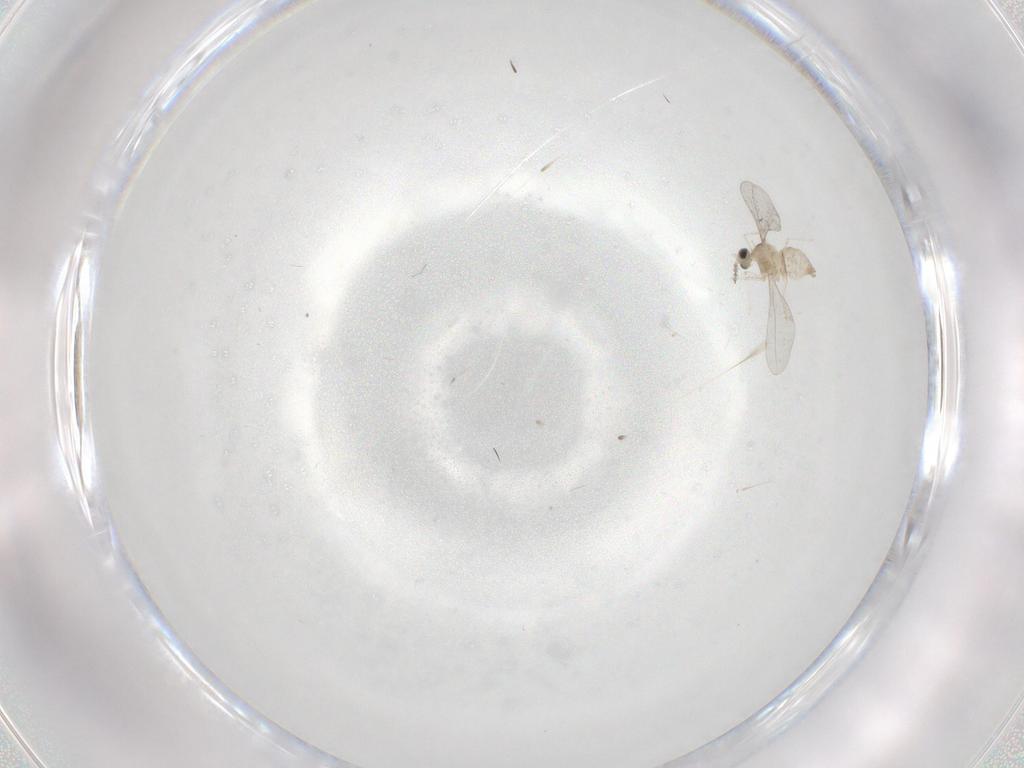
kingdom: Animalia
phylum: Arthropoda
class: Insecta
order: Diptera
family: Cecidomyiidae
